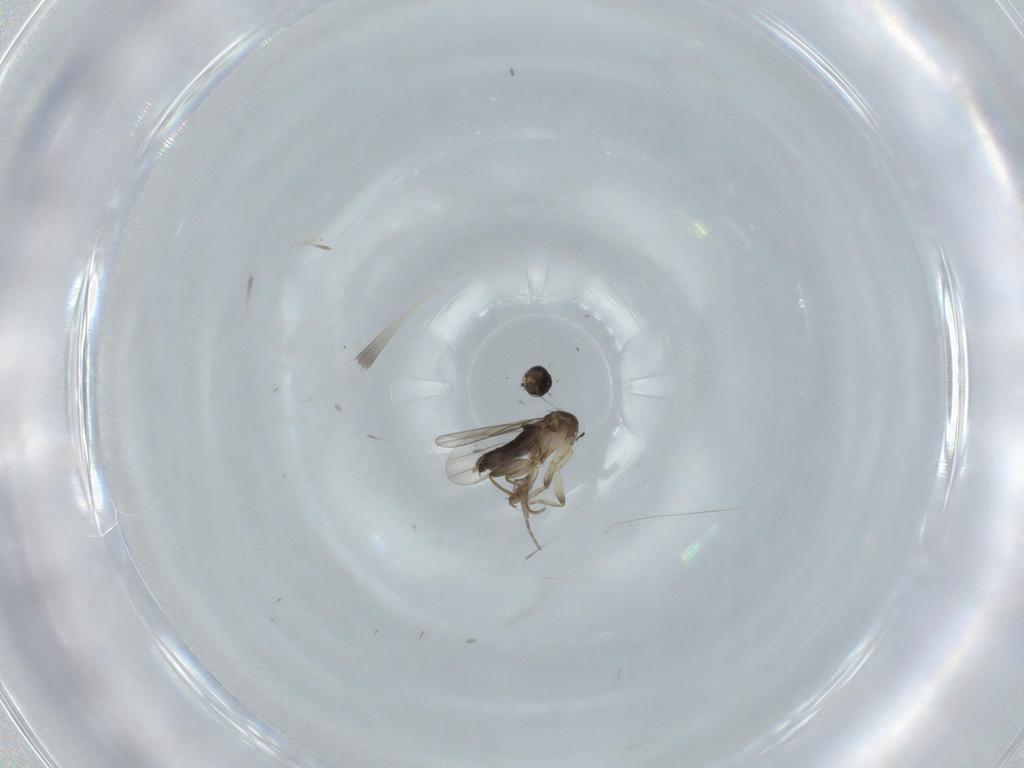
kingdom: Animalia
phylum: Arthropoda
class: Insecta
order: Diptera
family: Phoridae
